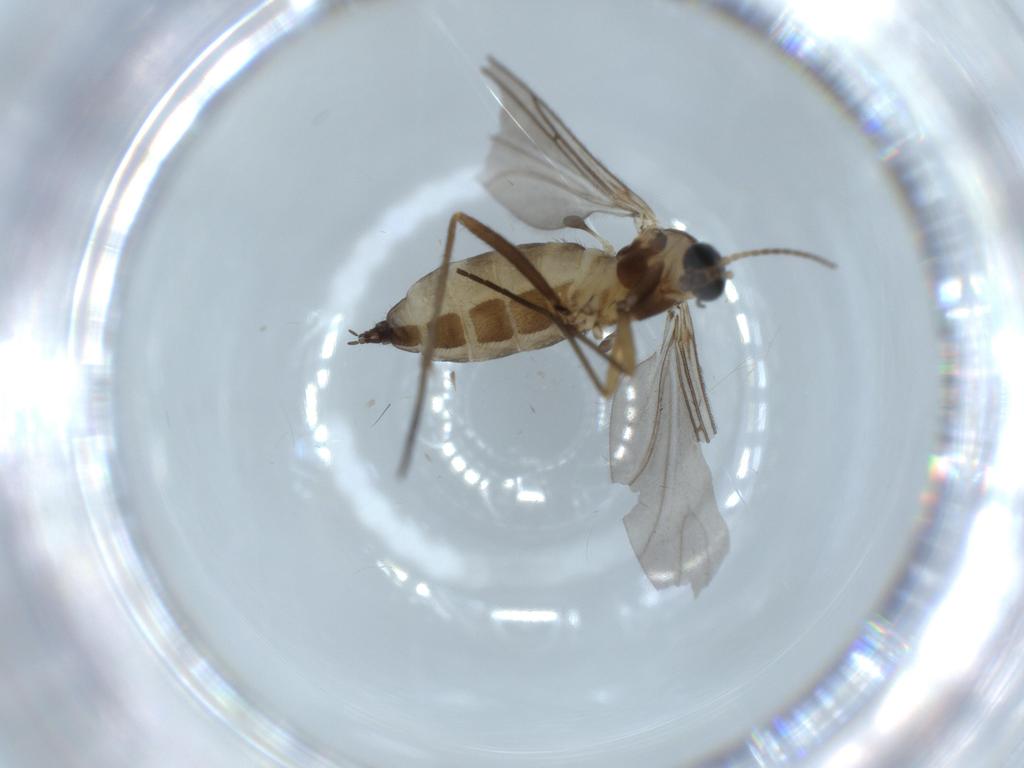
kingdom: Animalia
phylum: Arthropoda
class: Insecta
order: Diptera
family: Sciaridae
